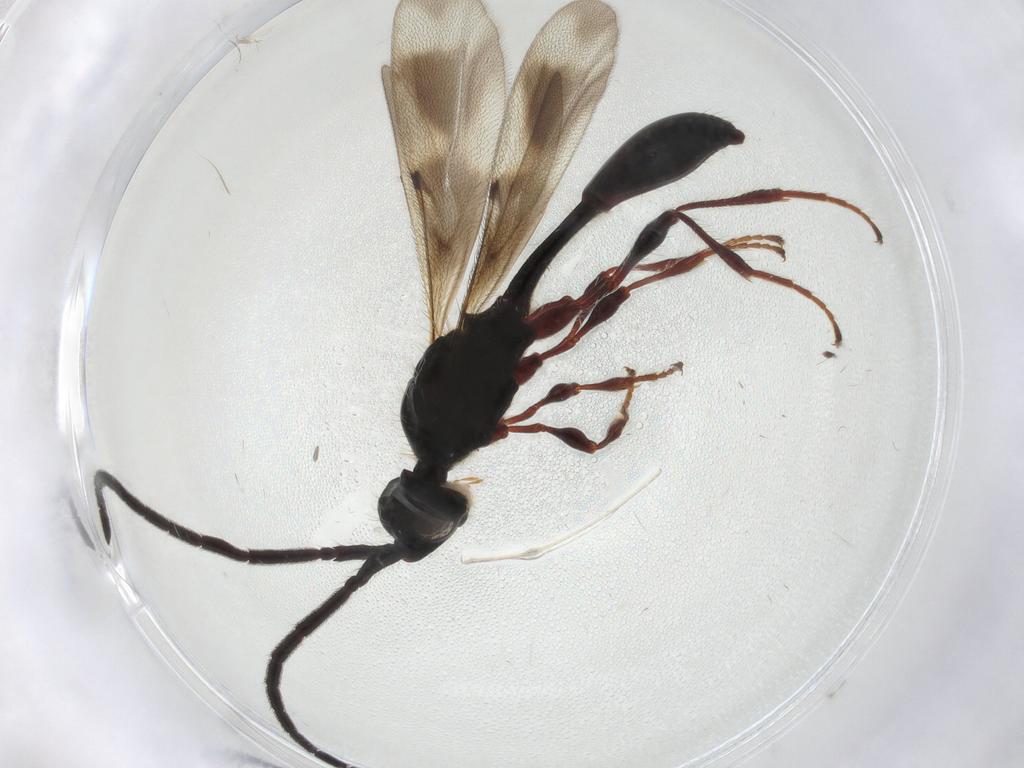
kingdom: Animalia
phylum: Arthropoda
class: Insecta
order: Hymenoptera
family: Diapriidae
